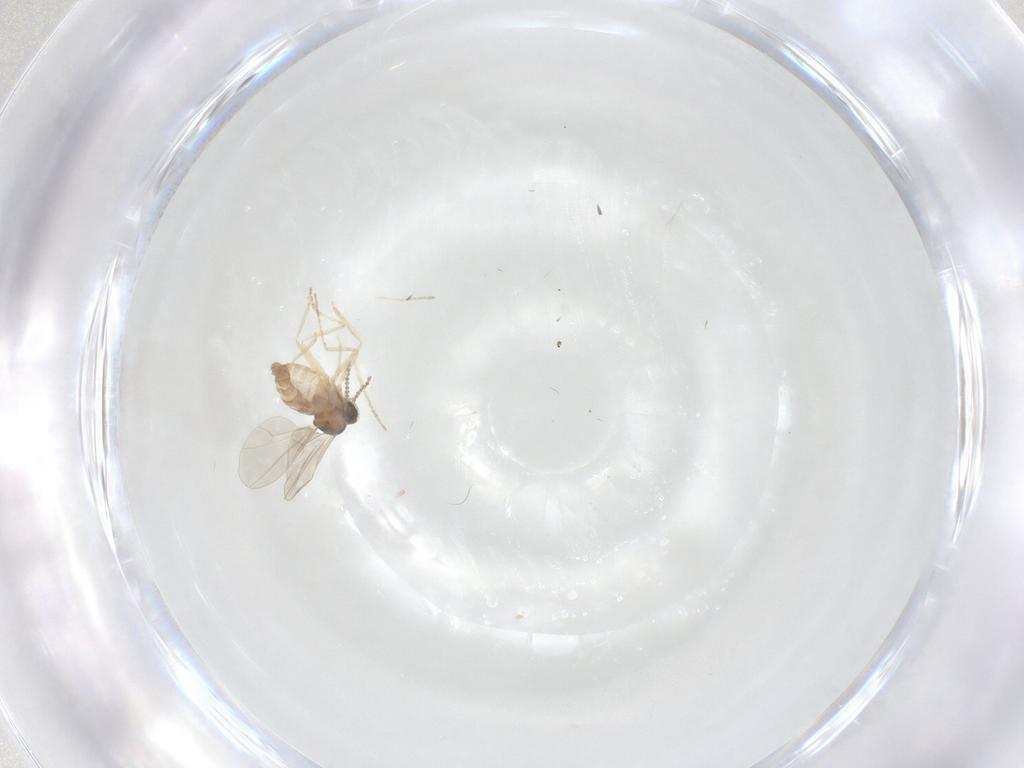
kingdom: Animalia
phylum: Arthropoda
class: Insecta
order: Diptera
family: Cecidomyiidae
